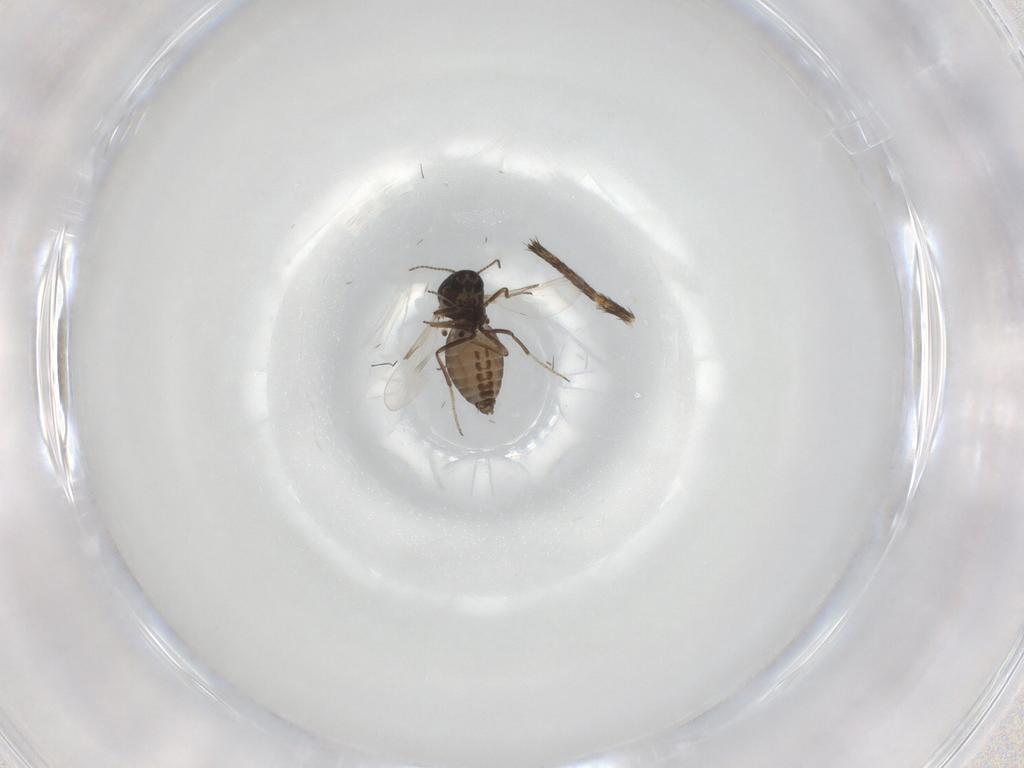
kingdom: Animalia
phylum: Arthropoda
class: Insecta
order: Diptera
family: Ceratopogonidae
